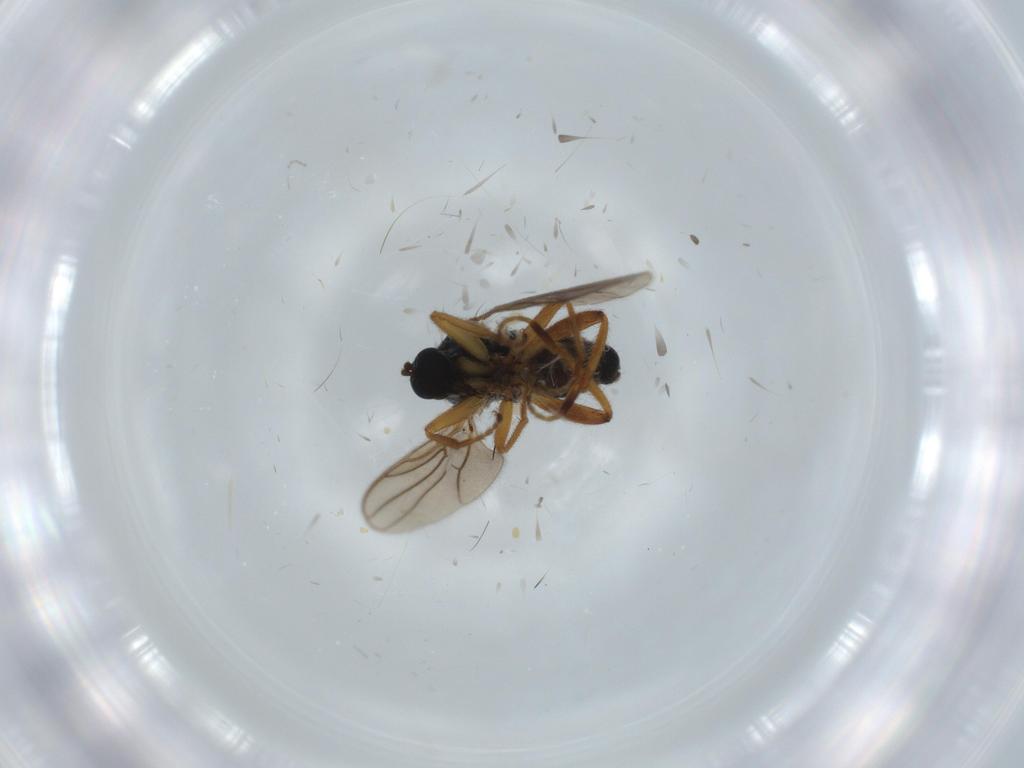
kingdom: Animalia
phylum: Arthropoda
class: Insecta
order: Diptera
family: Hybotidae
